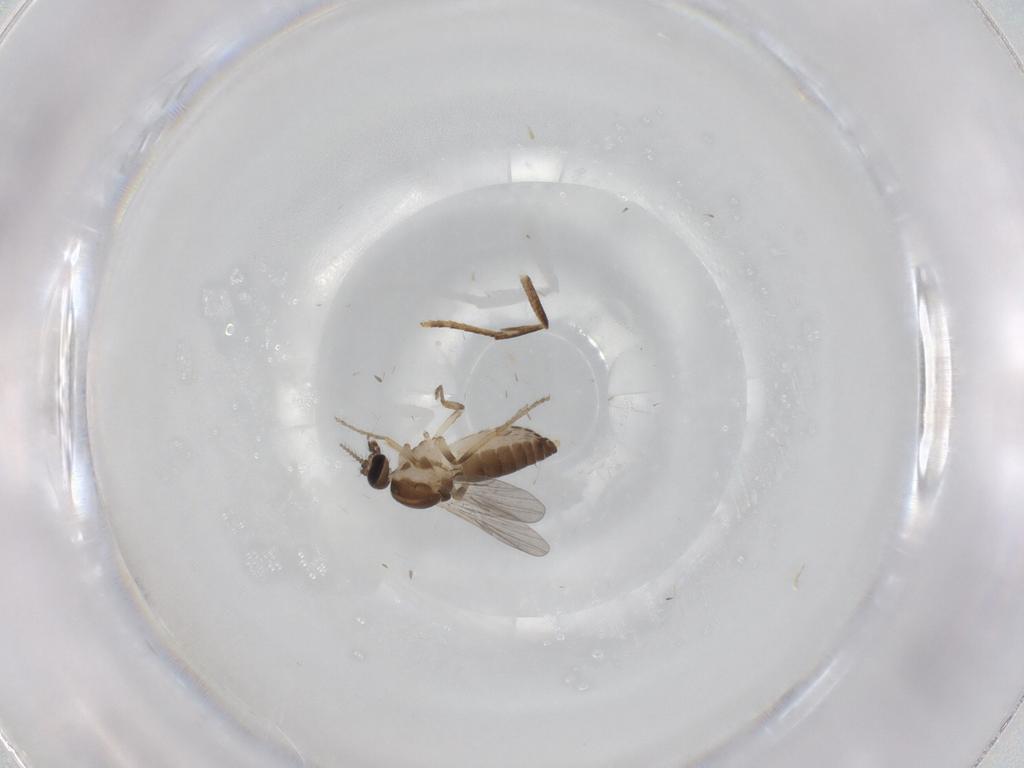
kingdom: Animalia
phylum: Arthropoda
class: Insecta
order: Diptera
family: Ceratopogonidae
